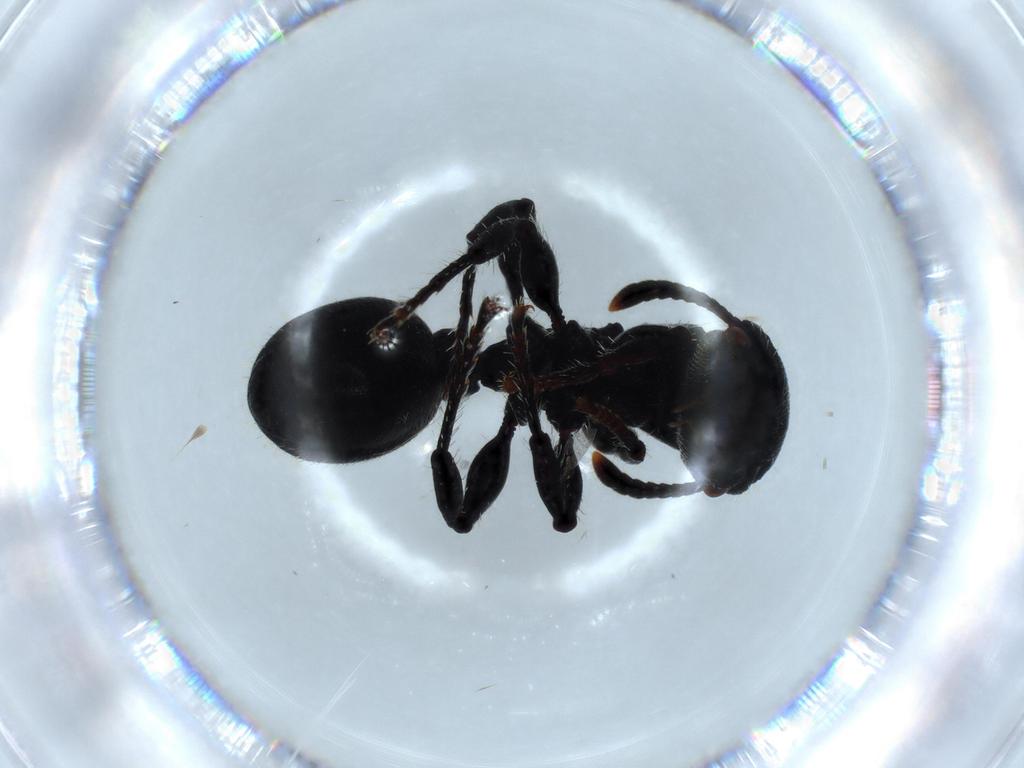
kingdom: Animalia
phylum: Arthropoda
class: Insecta
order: Hymenoptera
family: Formicidae
